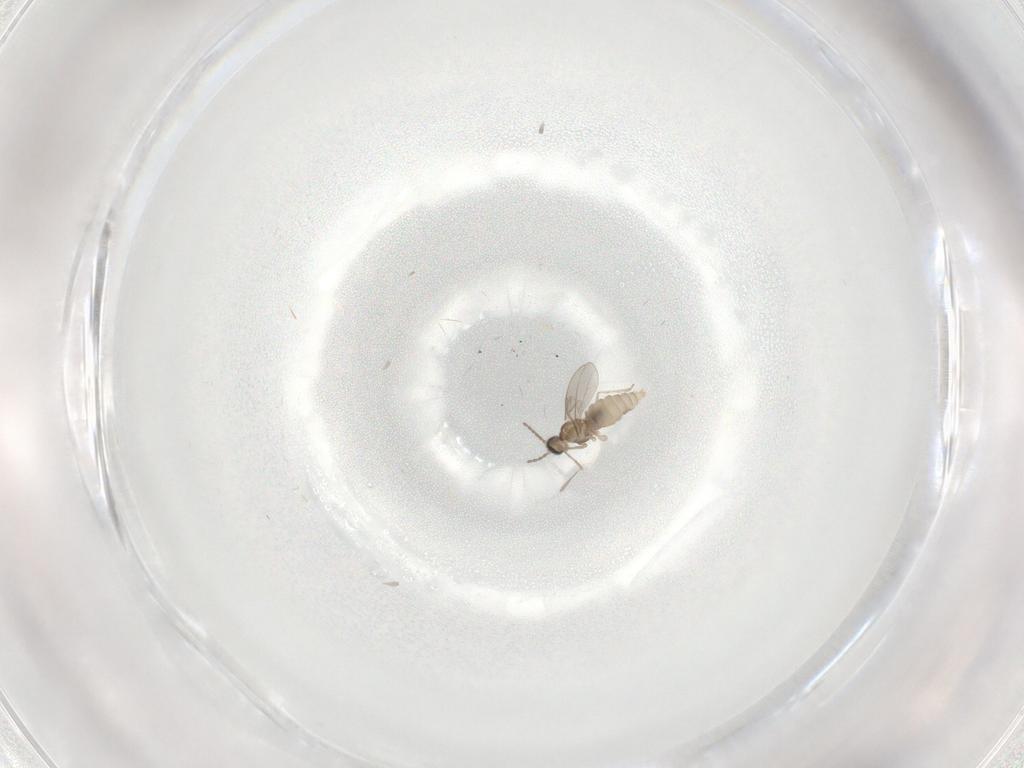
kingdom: Animalia
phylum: Arthropoda
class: Insecta
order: Diptera
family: Cecidomyiidae
